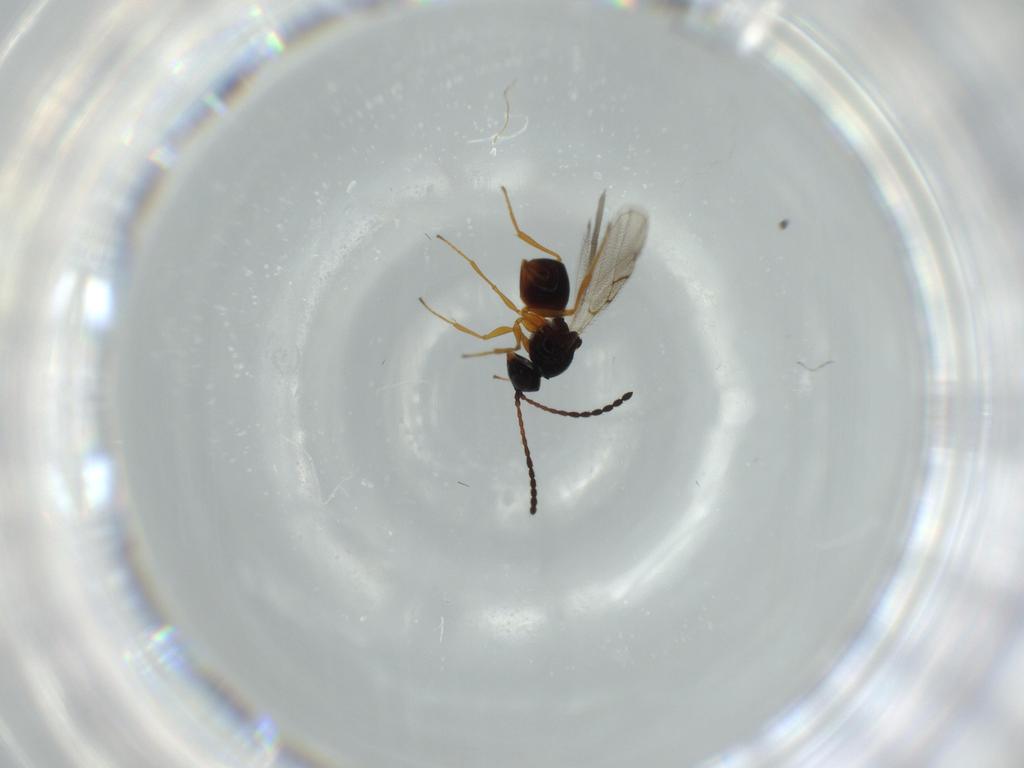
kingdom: Animalia
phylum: Arthropoda
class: Insecta
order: Hymenoptera
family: Figitidae
